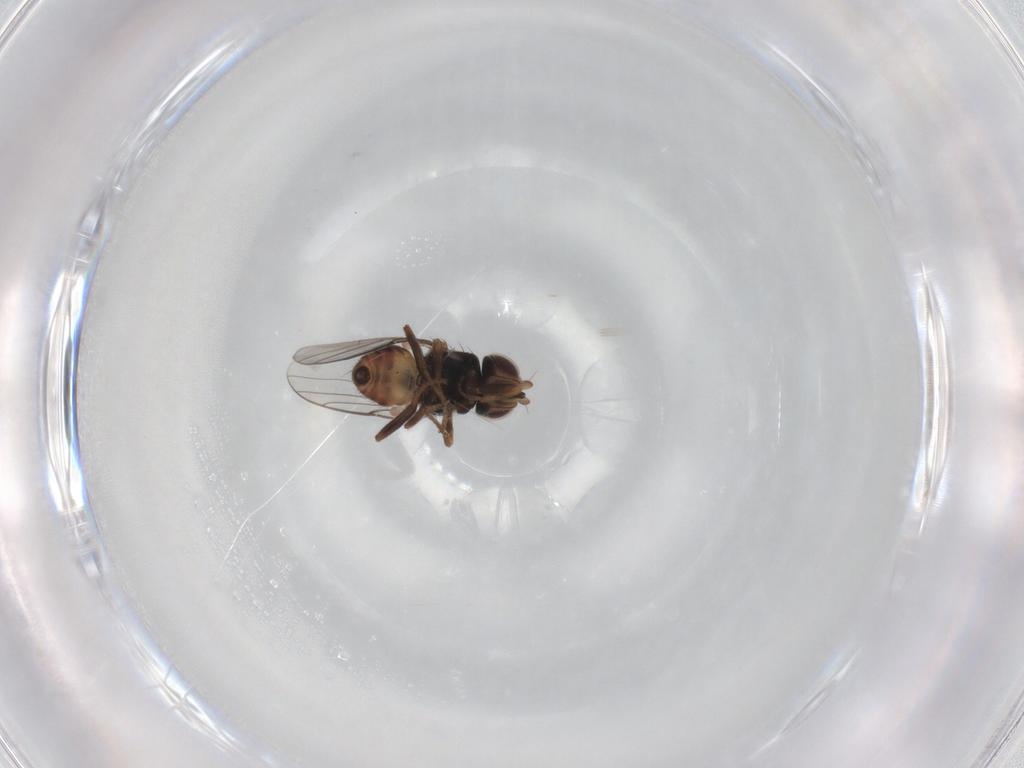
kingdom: Animalia
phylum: Arthropoda
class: Insecta
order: Diptera
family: Chloropidae
